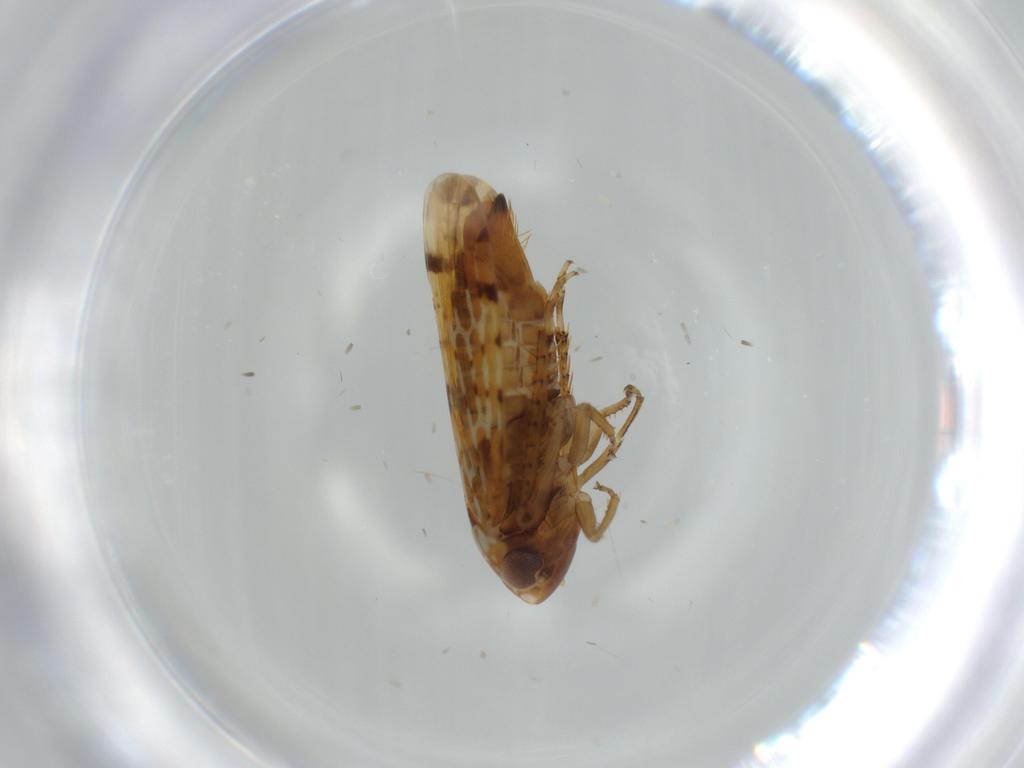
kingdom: Animalia
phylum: Arthropoda
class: Insecta
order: Hemiptera
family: Cicadellidae
